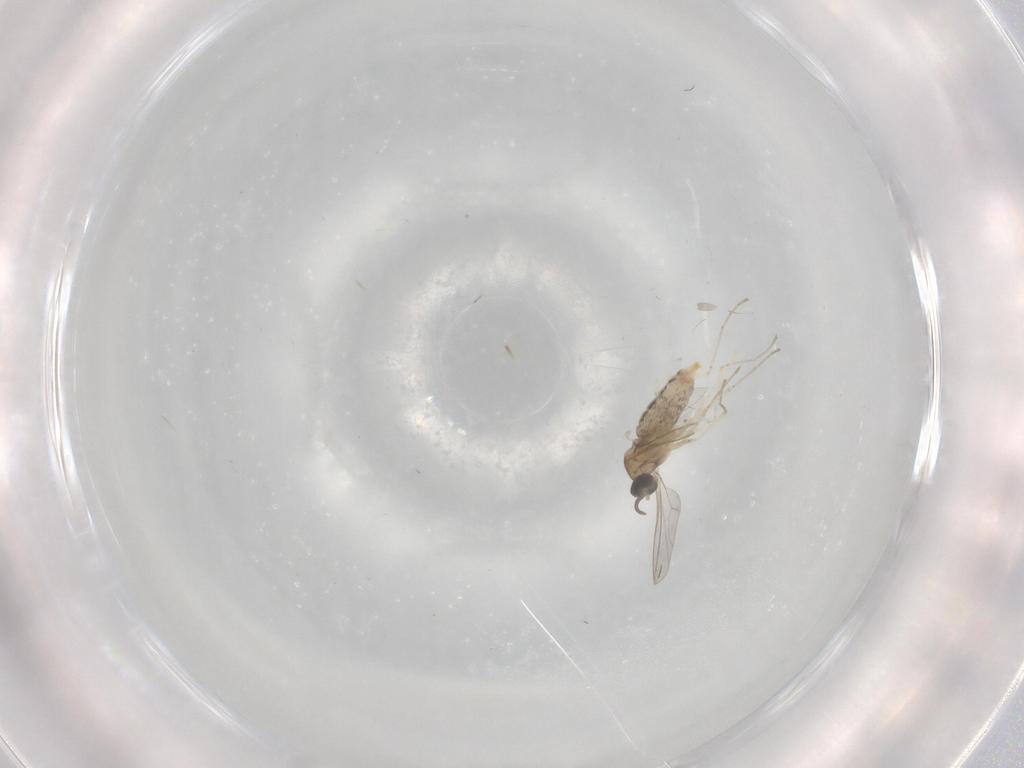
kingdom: Animalia
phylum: Arthropoda
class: Insecta
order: Diptera
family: Cecidomyiidae
